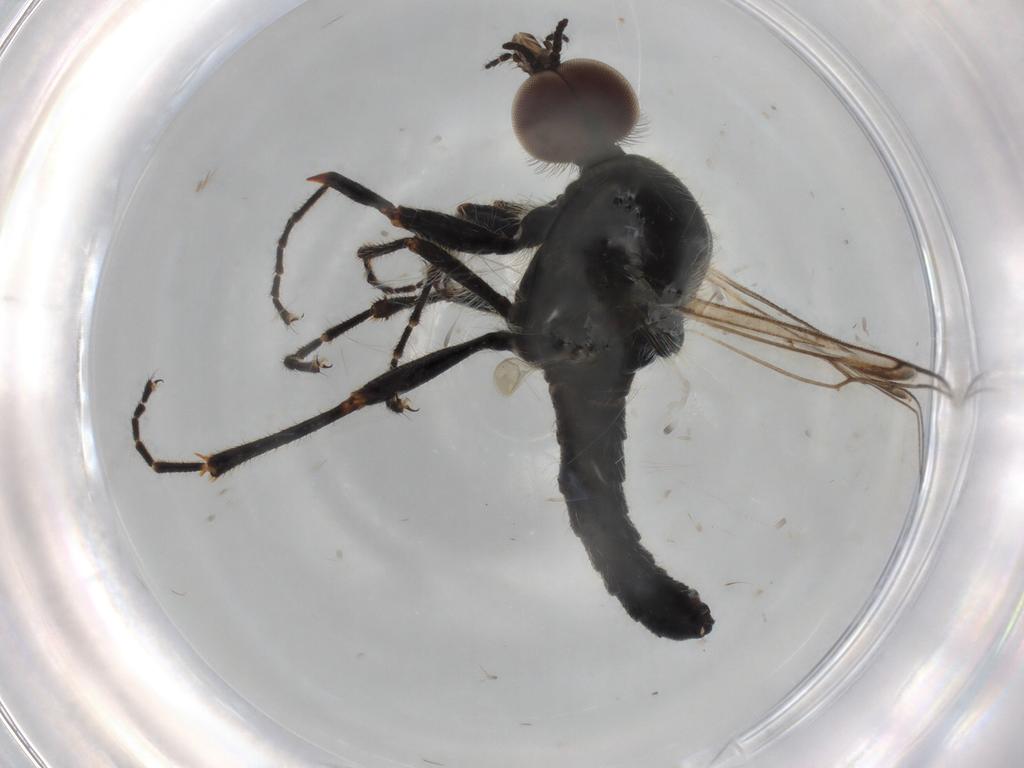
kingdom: Animalia
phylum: Arthropoda
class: Insecta
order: Diptera
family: Bibionidae
